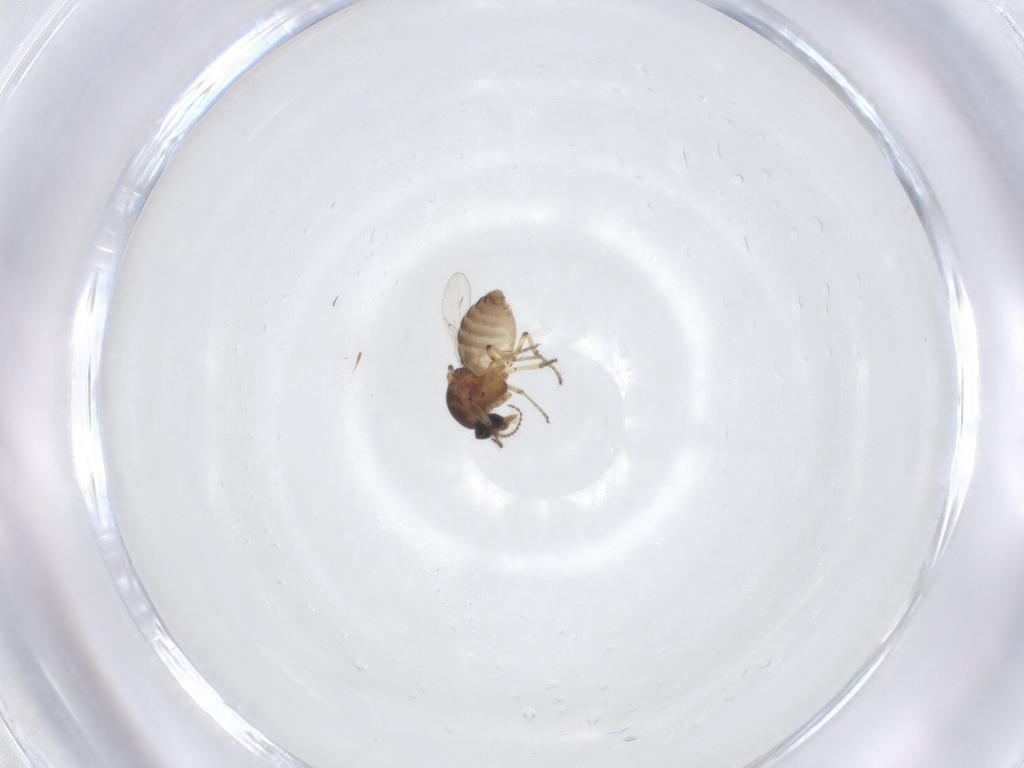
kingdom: Animalia
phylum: Arthropoda
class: Insecta
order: Diptera
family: Ceratopogonidae
